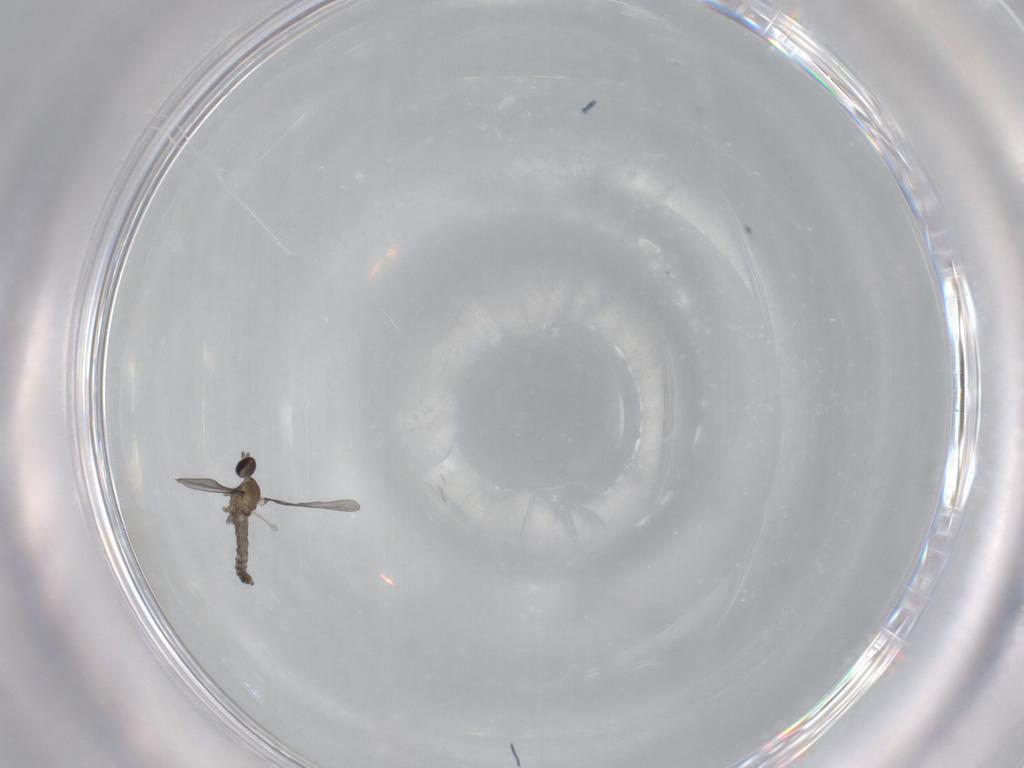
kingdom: Animalia
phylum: Arthropoda
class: Insecta
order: Diptera
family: Cecidomyiidae
